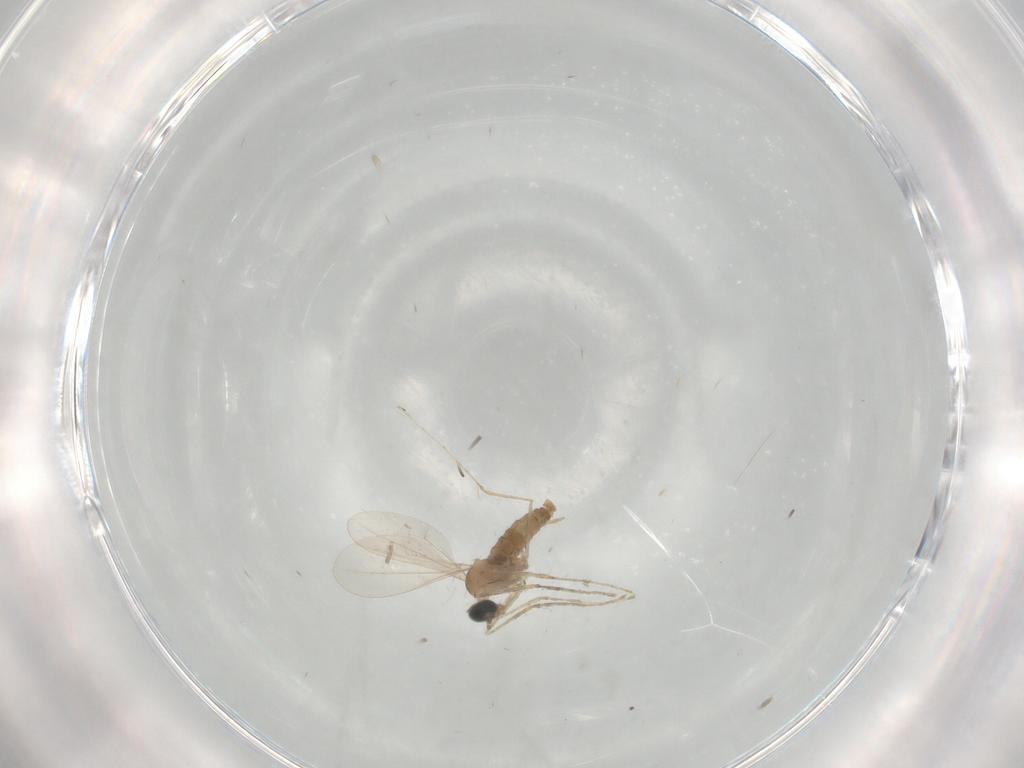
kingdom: Animalia
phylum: Arthropoda
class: Insecta
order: Diptera
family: Cecidomyiidae
